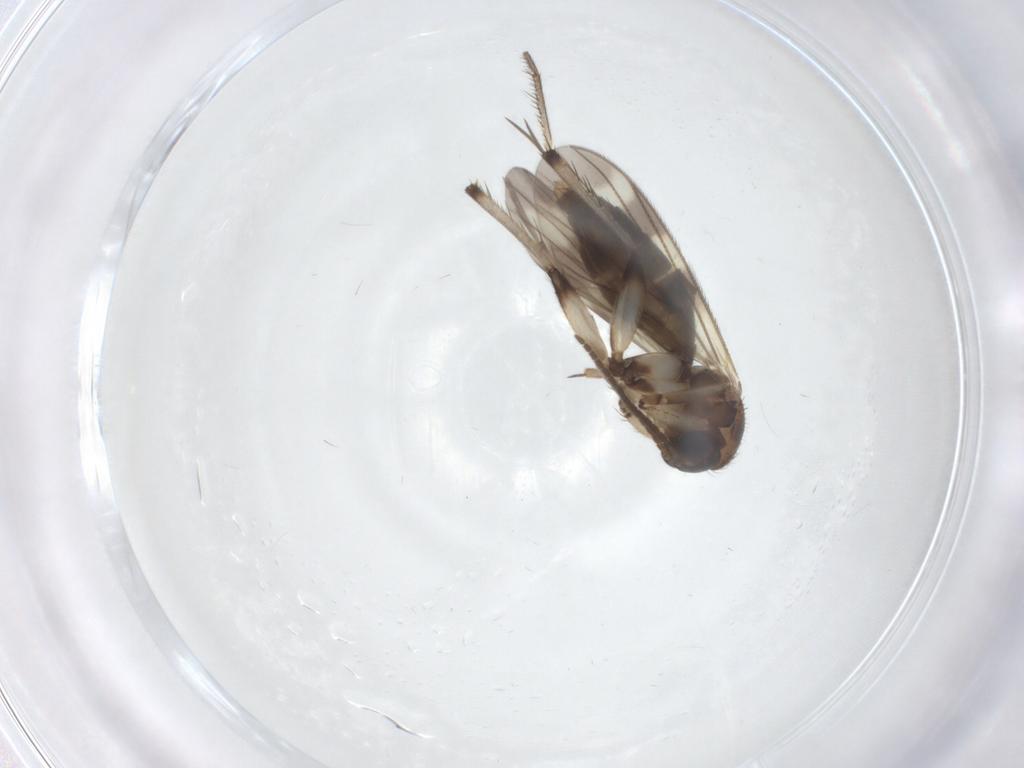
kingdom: Animalia
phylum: Arthropoda
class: Insecta
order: Diptera
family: Mycetophilidae
